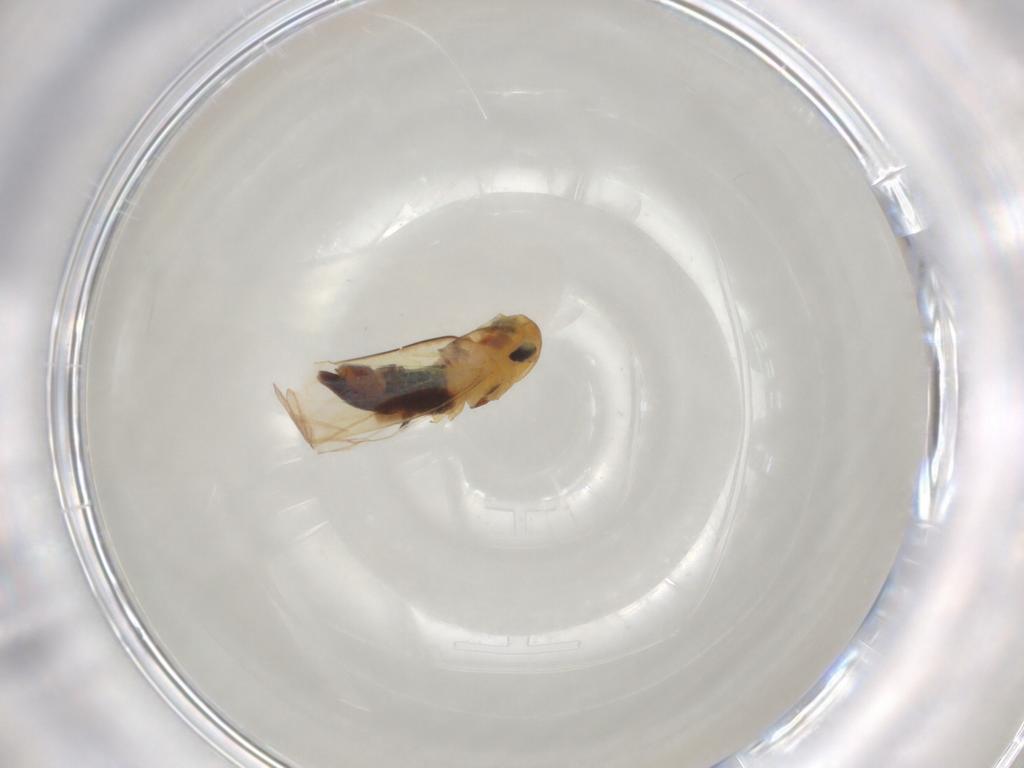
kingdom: Animalia
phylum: Arthropoda
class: Insecta
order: Hemiptera
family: Cicadellidae
